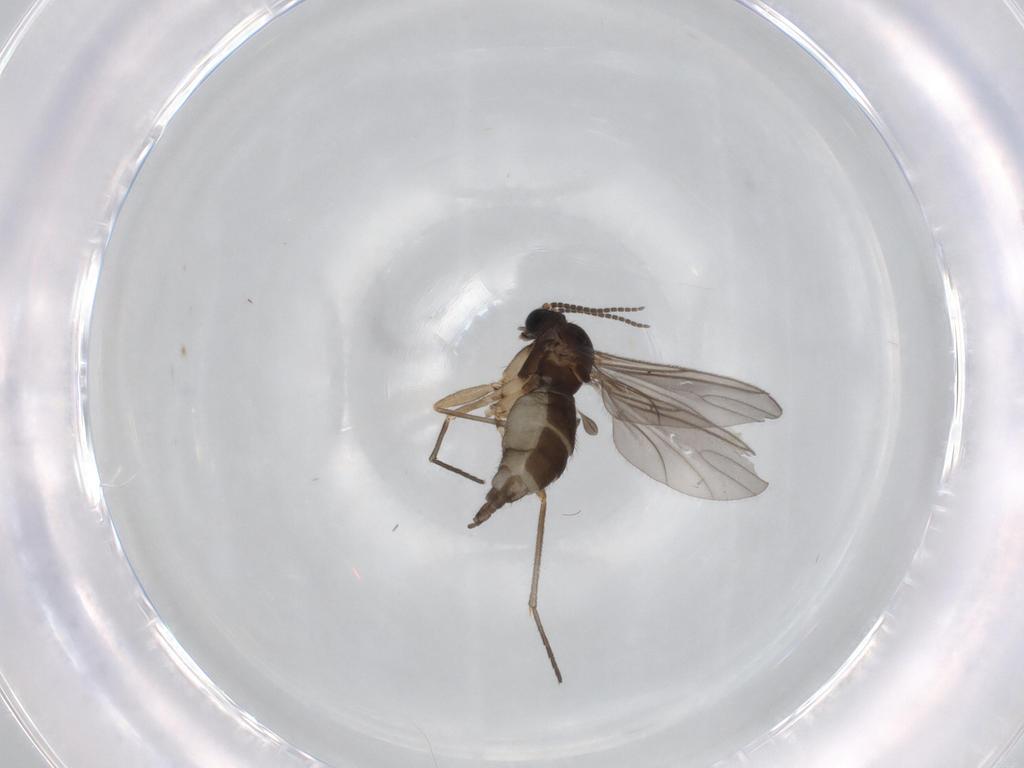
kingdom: Animalia
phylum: Arthropoda
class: Insecta
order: Diptera
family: Sciaridae
